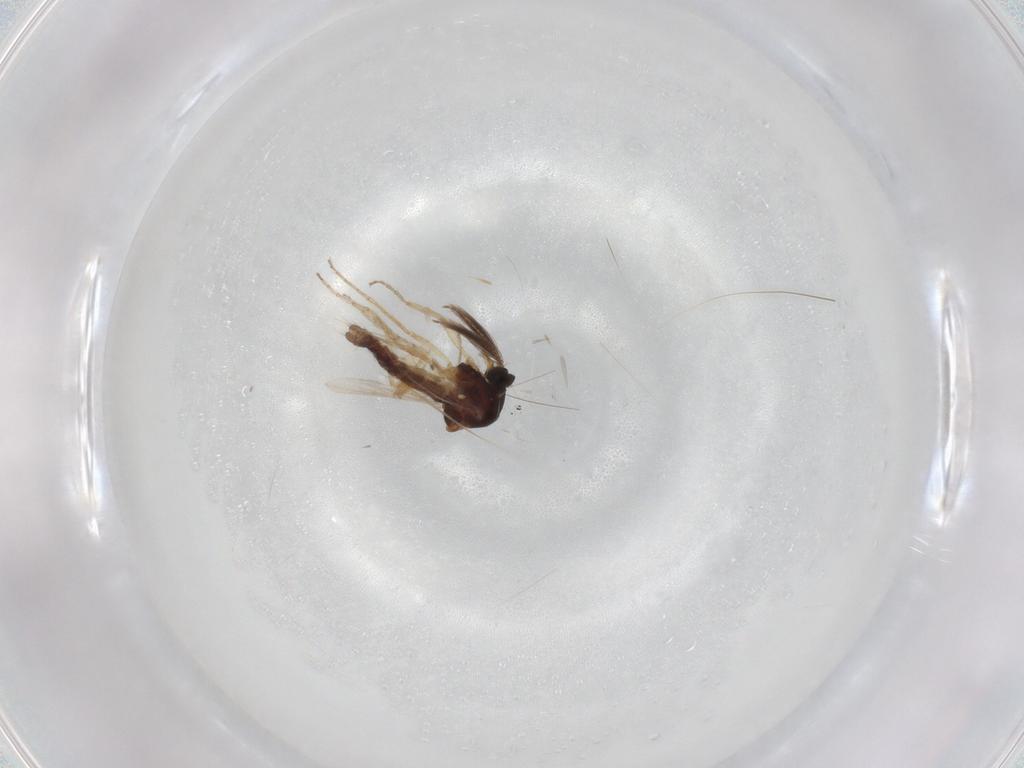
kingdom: Animalia
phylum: Arthropoda
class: Insecta
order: Diptera
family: Ceratopogonidae
